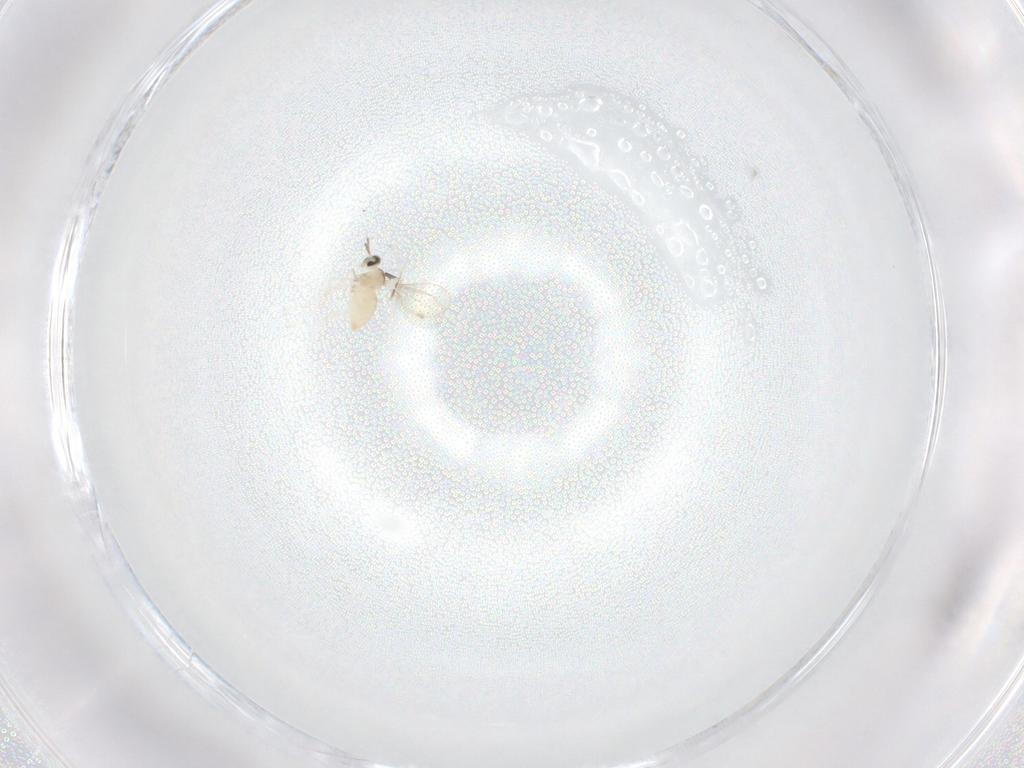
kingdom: Animalia
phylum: Arthropoda
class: Insecta
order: Diptera
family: Cecidomyiidae
